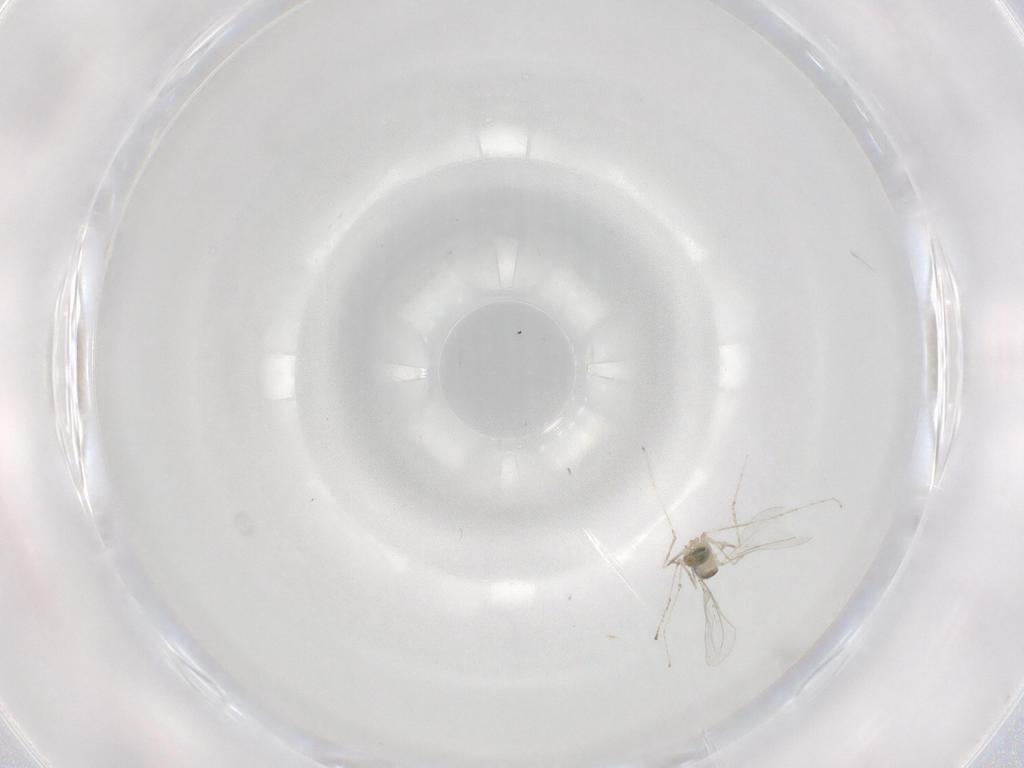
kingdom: Animalia
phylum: Arthropoda
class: Insecta
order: Diptera
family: Cecidomyiidae
